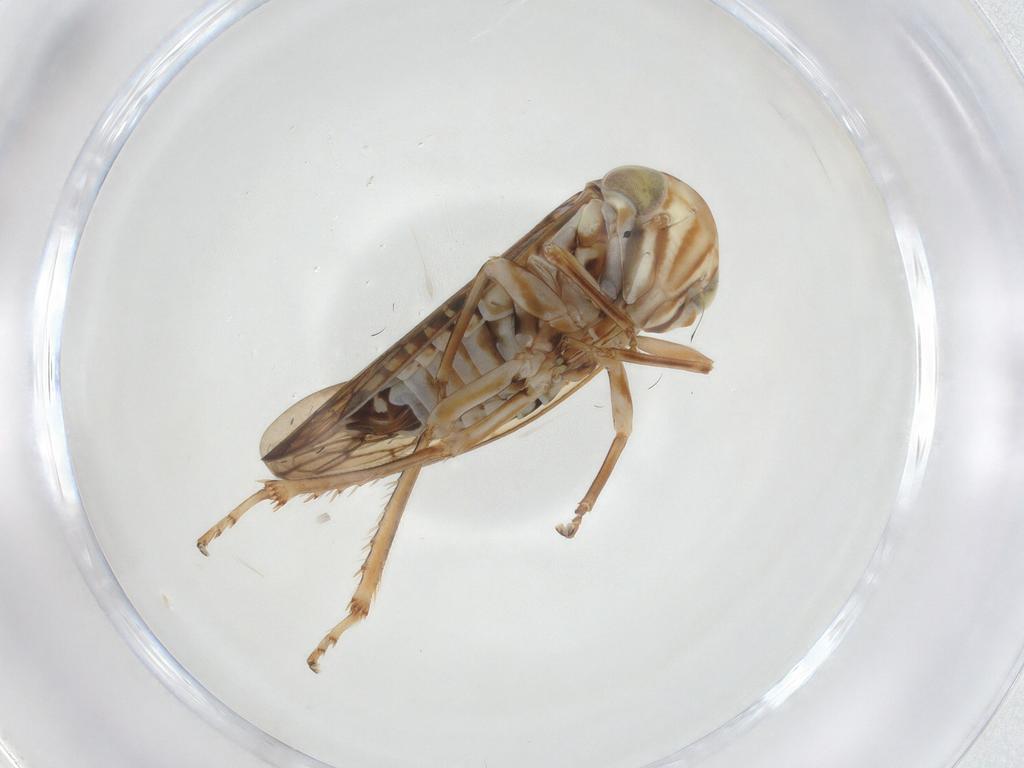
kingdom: Animalia
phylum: Arthropoda
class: Insecta
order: Hemiptera
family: Cicadellidae
